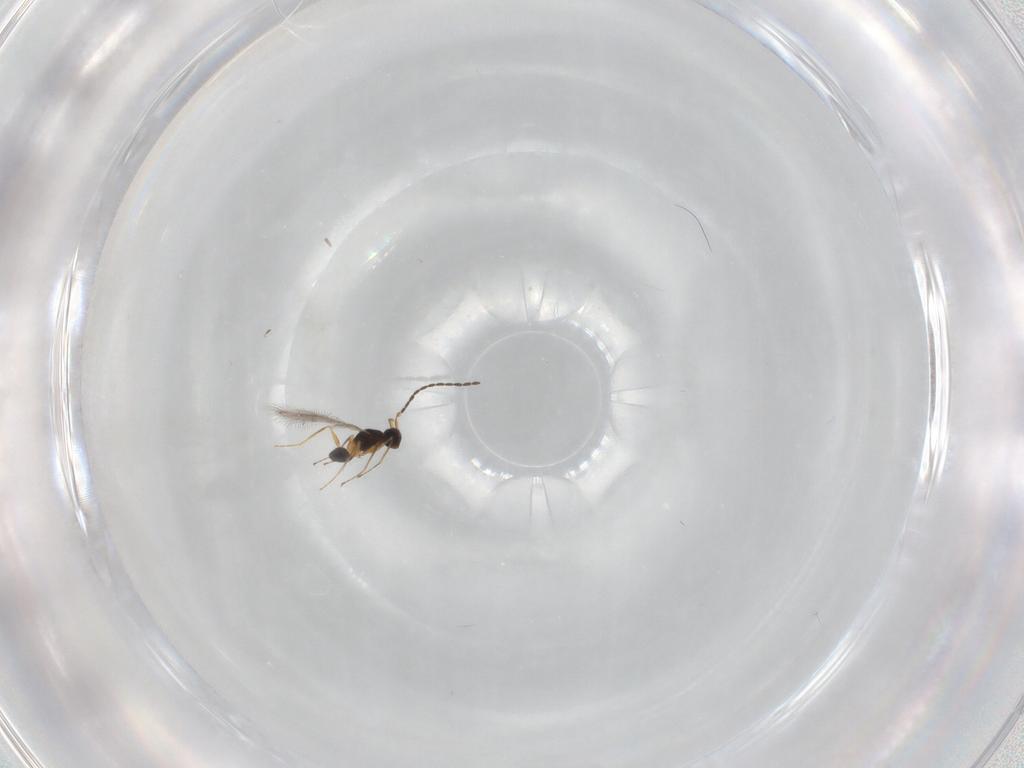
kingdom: Animalia
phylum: Arthropoda
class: Insecta
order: Hymenoptera
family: Mymaridae
